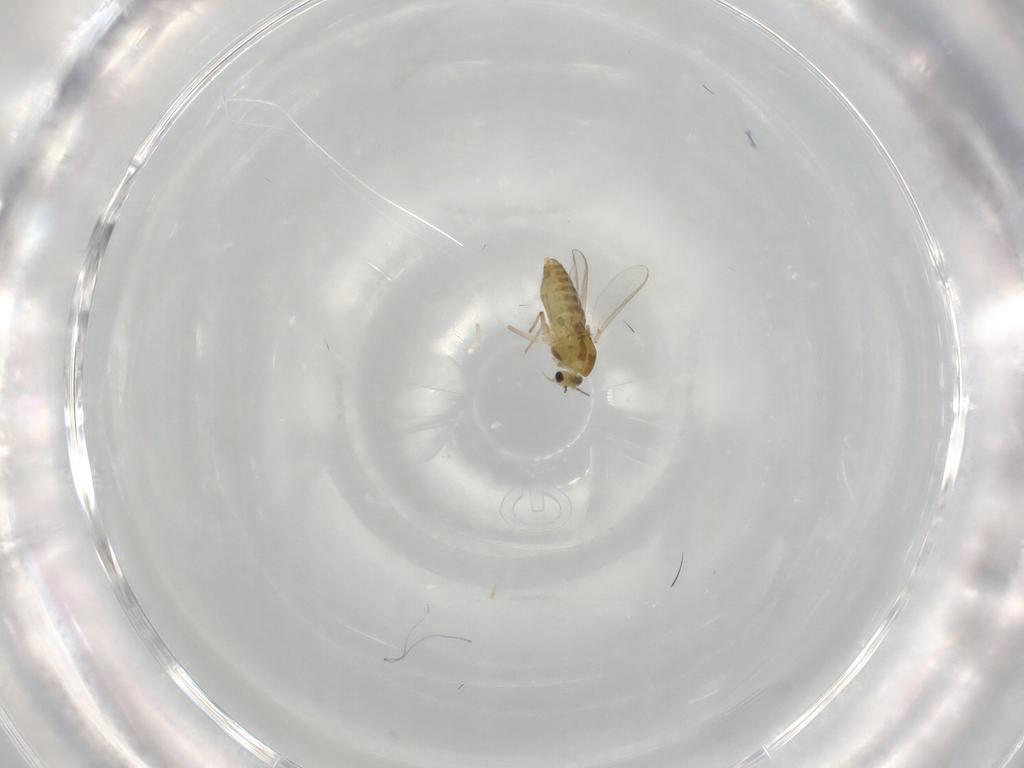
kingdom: Animalia
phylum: Arthropoda
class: Insecta
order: Diptera
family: Chironomidae
